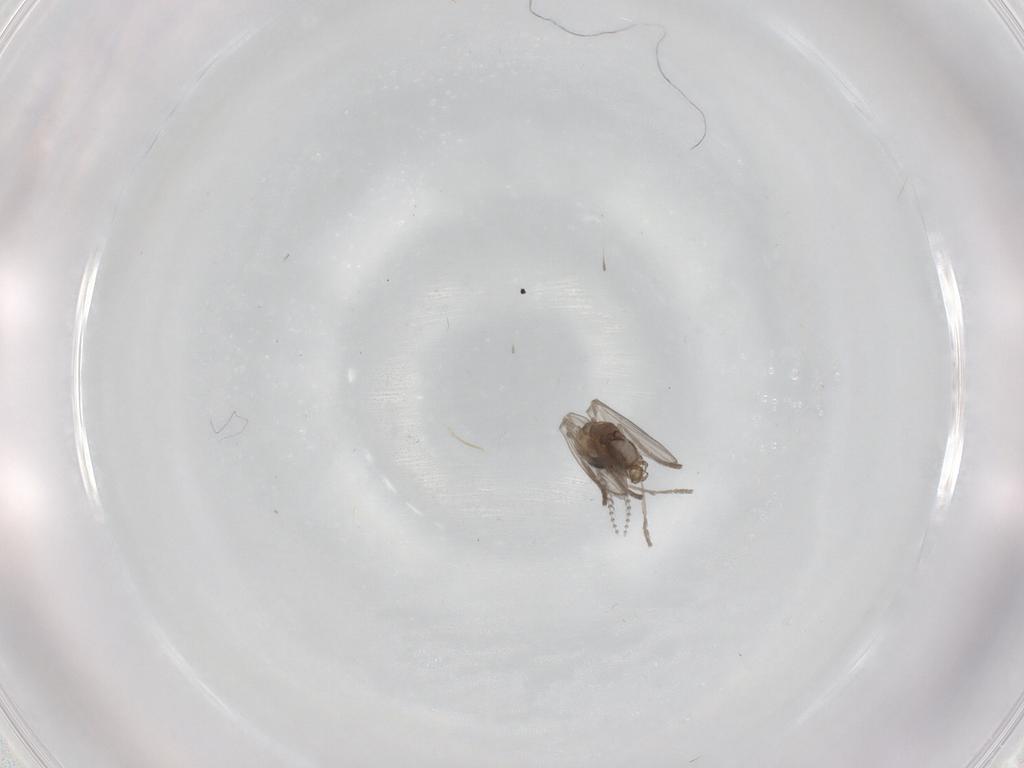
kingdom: Animalia
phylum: Arthropoda
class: Insecta
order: Diptera
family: Psychodidae
